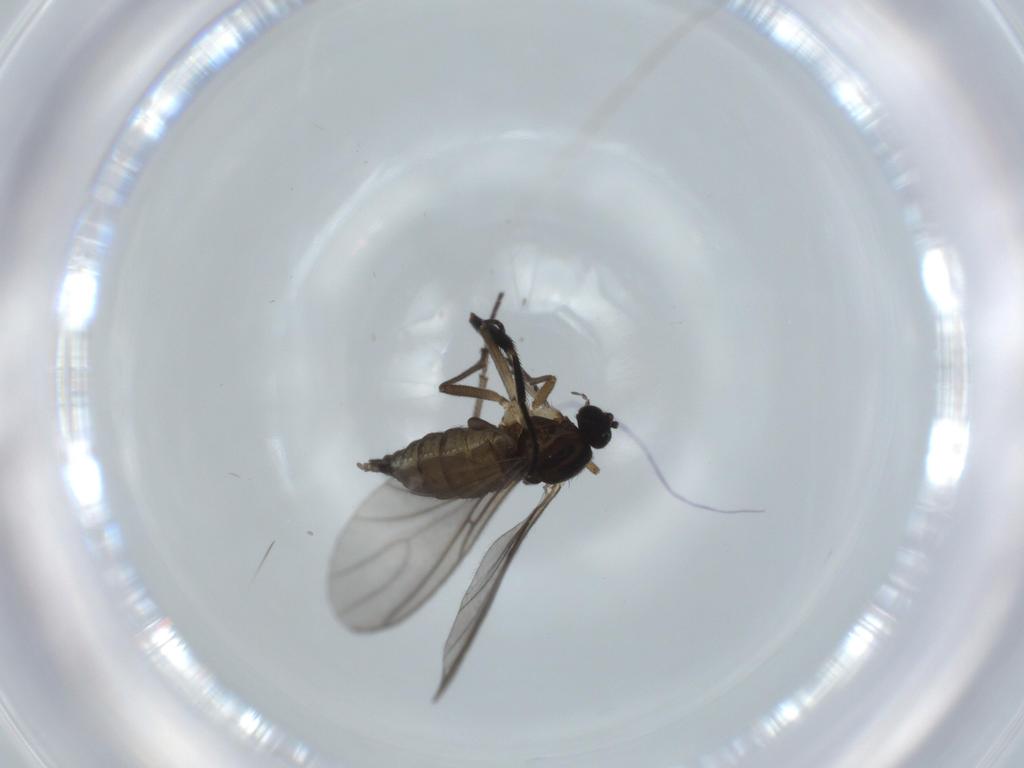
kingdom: Animalia
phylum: Arthropoda
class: Insecta
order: Diptera
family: Sciaridae
